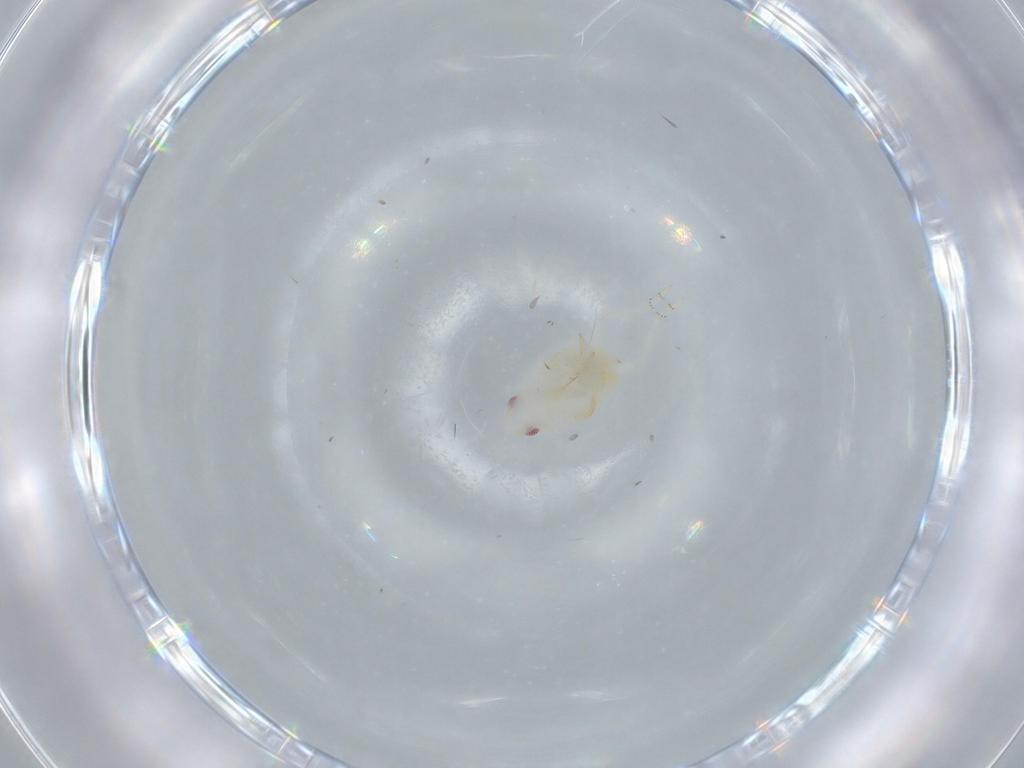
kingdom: Animalia
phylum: Arthropoda
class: Insecta
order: Hemiptera
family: Flatidae
